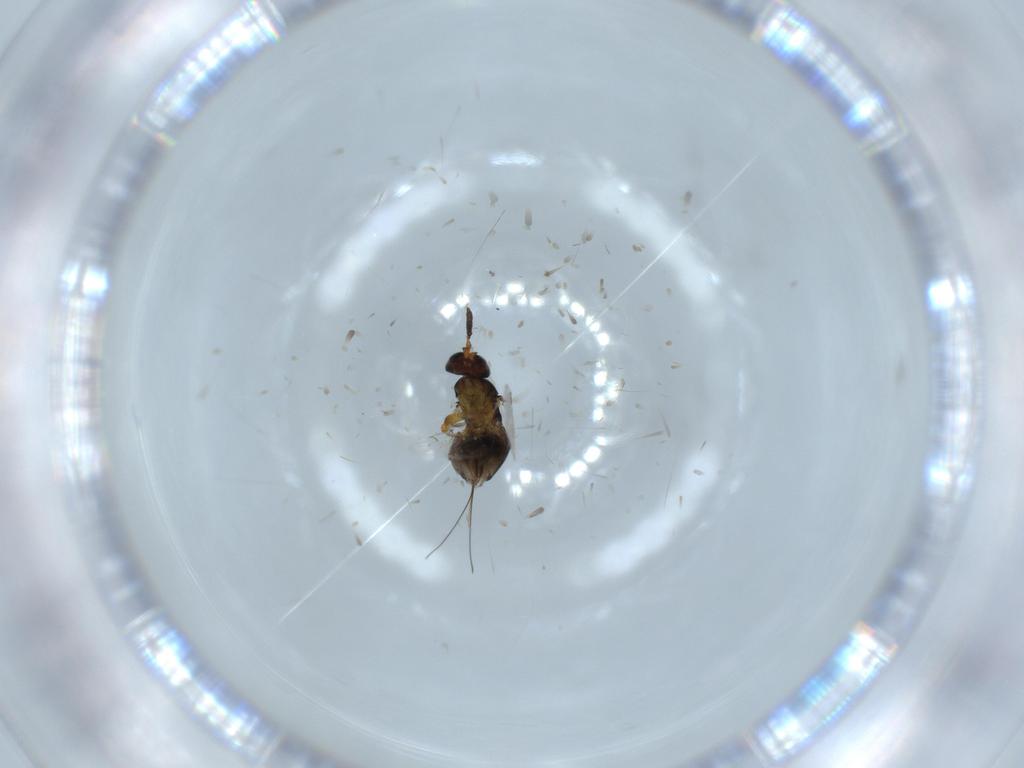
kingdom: Animalia
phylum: Arthropoda
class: Insecta
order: Hymenoptera
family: Agaonidae
